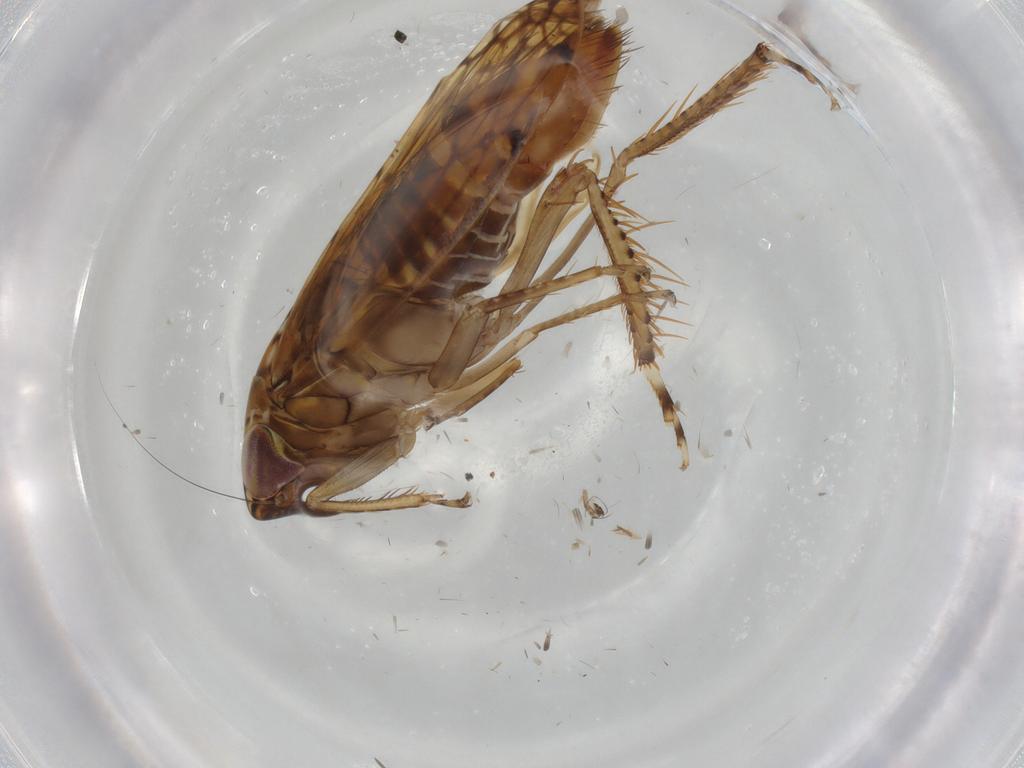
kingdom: Animalia
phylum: Arthropoda
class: Insecta
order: Hemiptera
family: Cicadellidae
